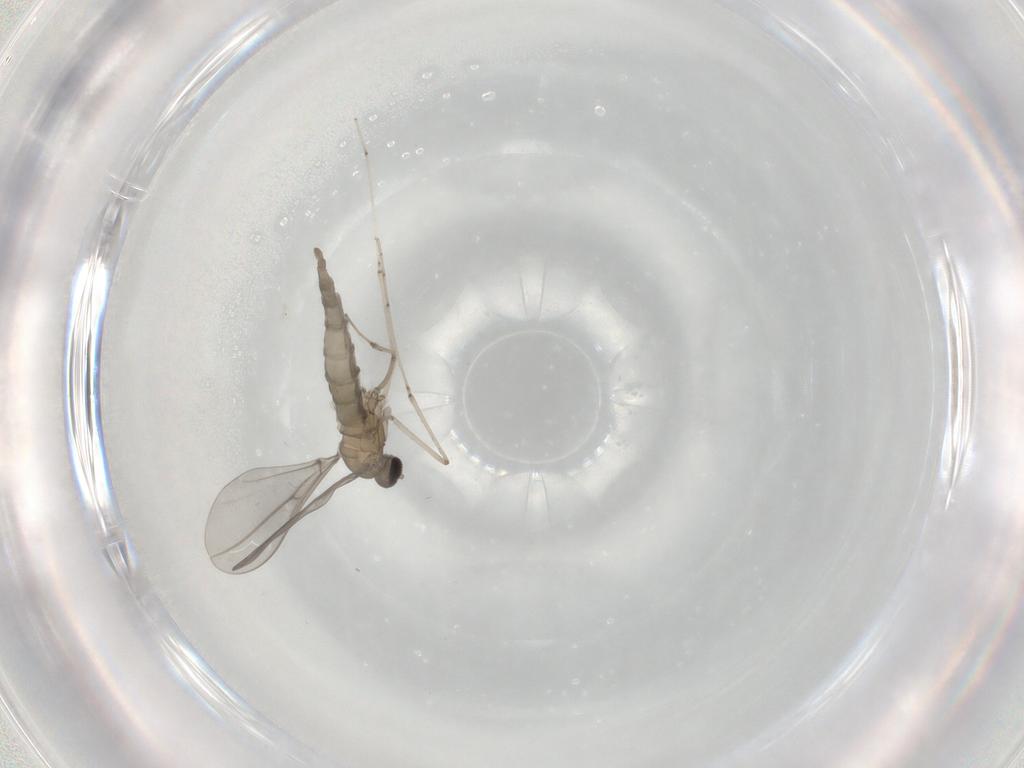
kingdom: Animalia
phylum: Arthropoda
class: Insecta
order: Diptera
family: Cecidomyiidae
